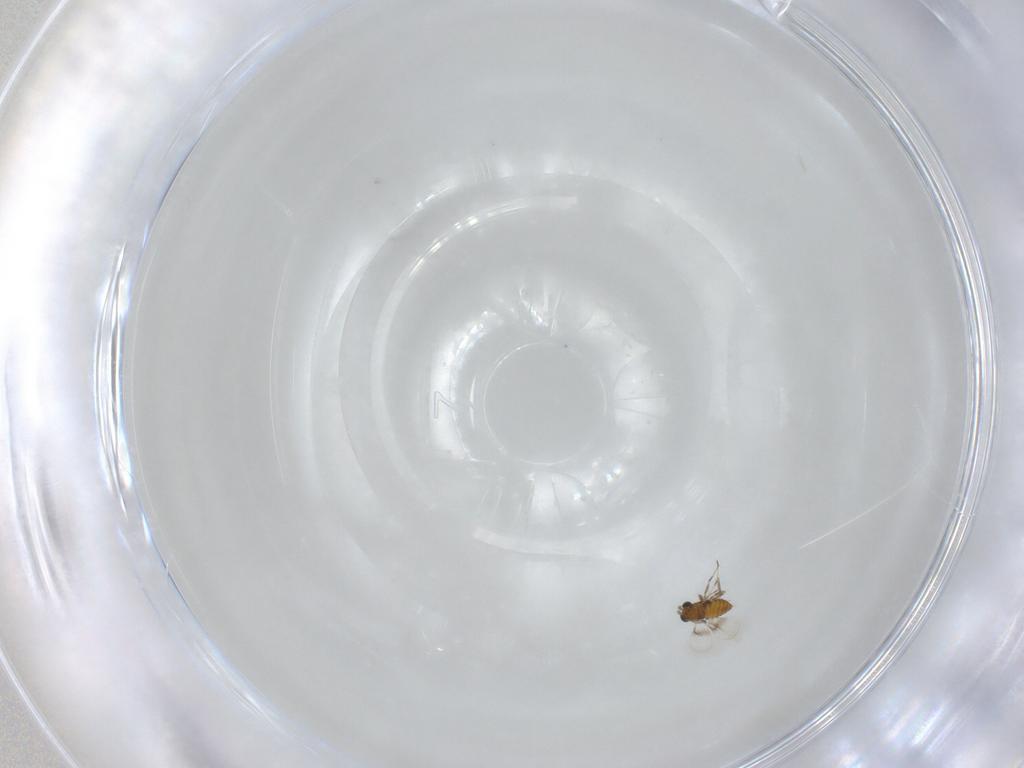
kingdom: Animalia
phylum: Arthropoda
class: Insecta
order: Hymenoptera
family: Trichogrammatidae
